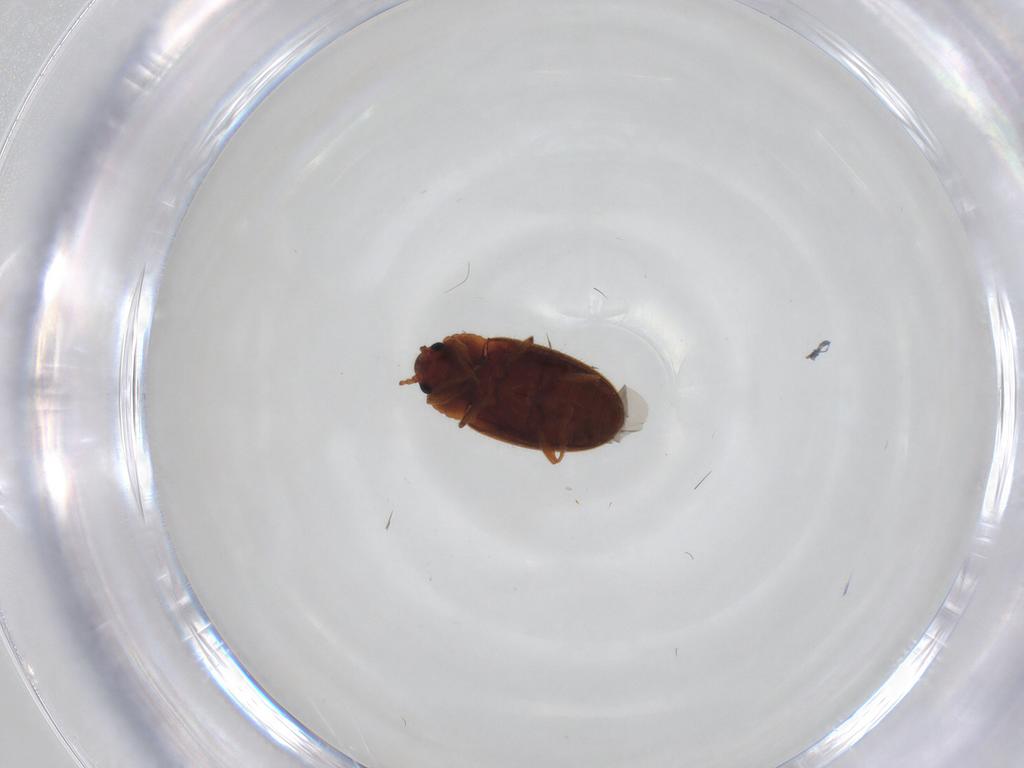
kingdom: Animalia
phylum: Arthropoda
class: Insecta
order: Coleoptera
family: Erotylidae
